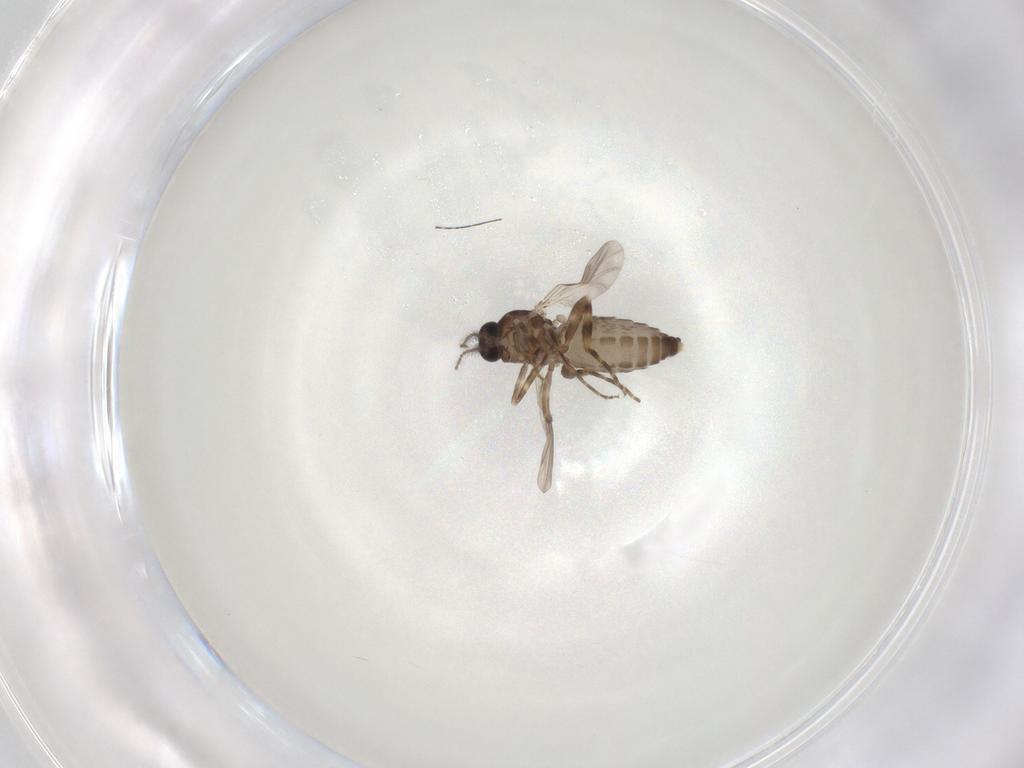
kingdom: Animalia
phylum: Arthropoda
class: Insecta
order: Diptera
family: Ceratopogonidae
